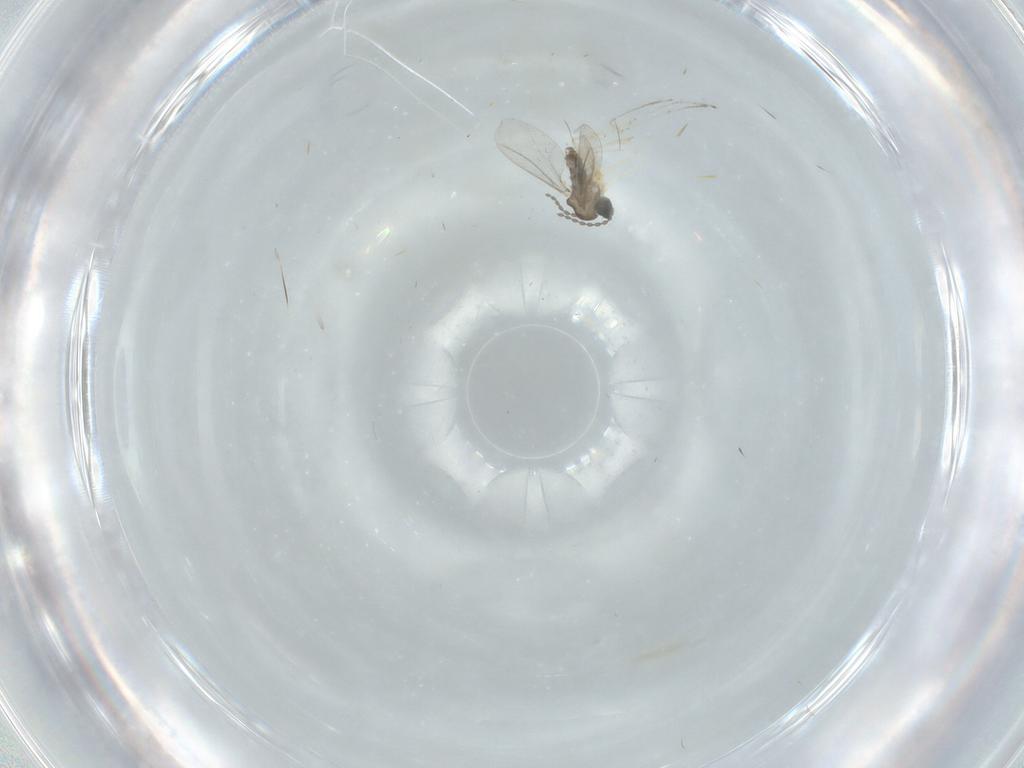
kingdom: Animalia
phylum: Arthropoda
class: Insecta
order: Diptera
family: Cecidomyiidae
